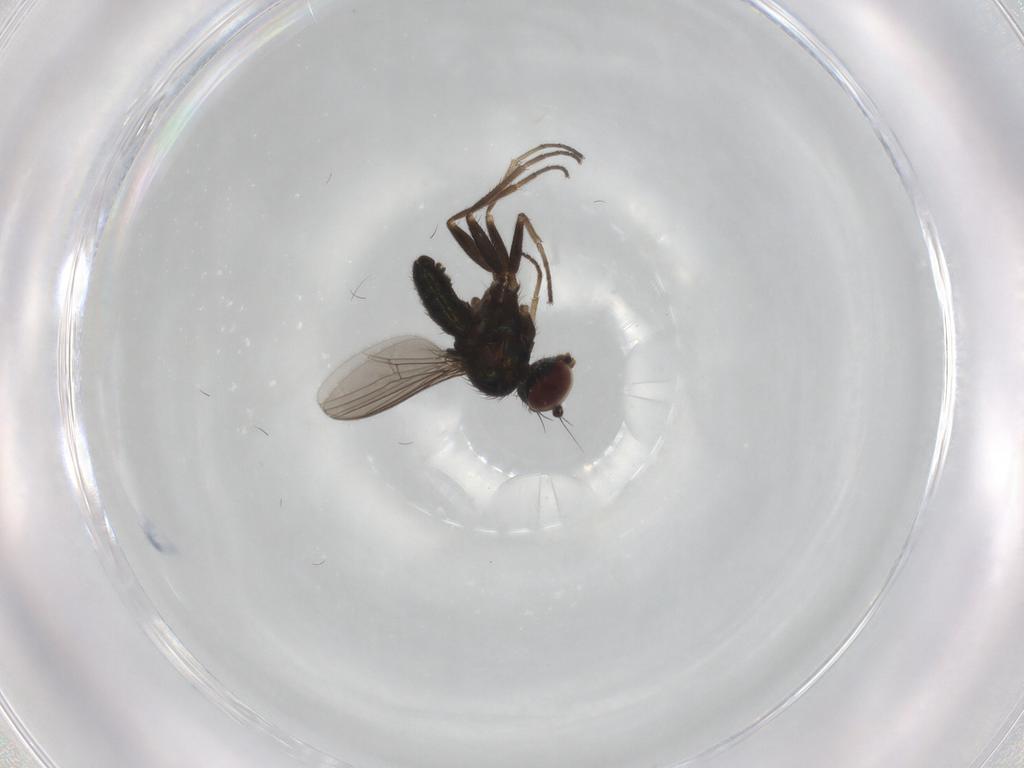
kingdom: Animalia
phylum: Arthropoda
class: Insecta
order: Diptera
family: Dolichopodidae
